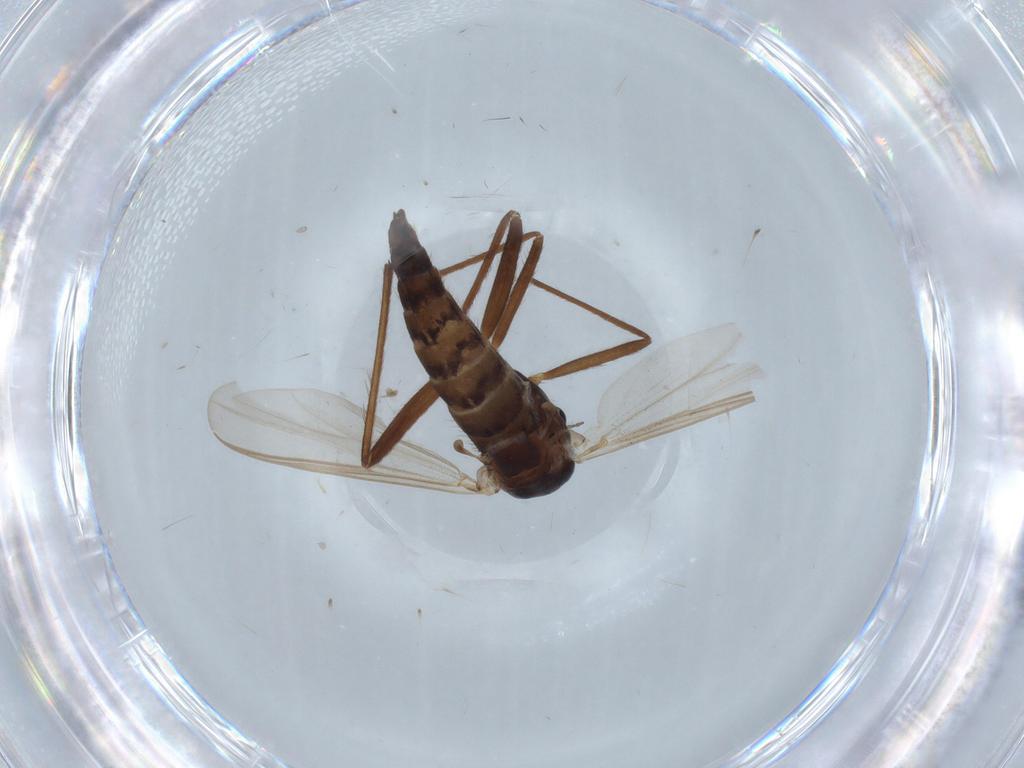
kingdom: Animalia
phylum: Arthropoda
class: Insecta
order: Diptera
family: Chironomidae
